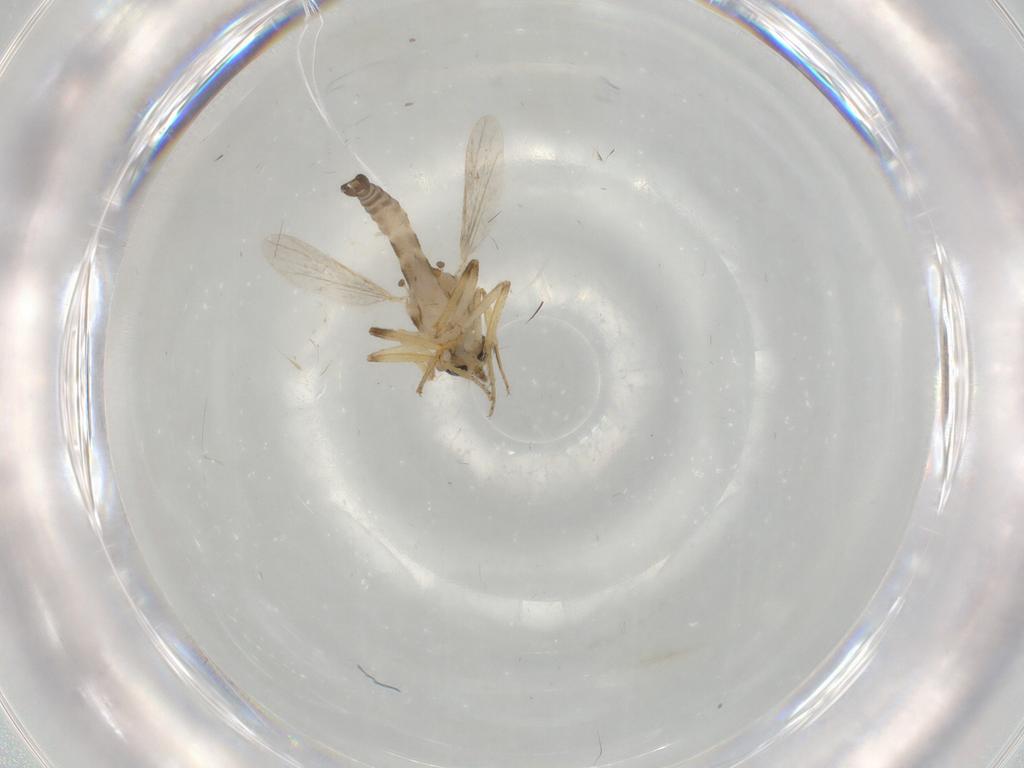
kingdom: Animalia
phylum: Arthropoda
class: Insecta
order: Diptera
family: Ceratopogonidae
